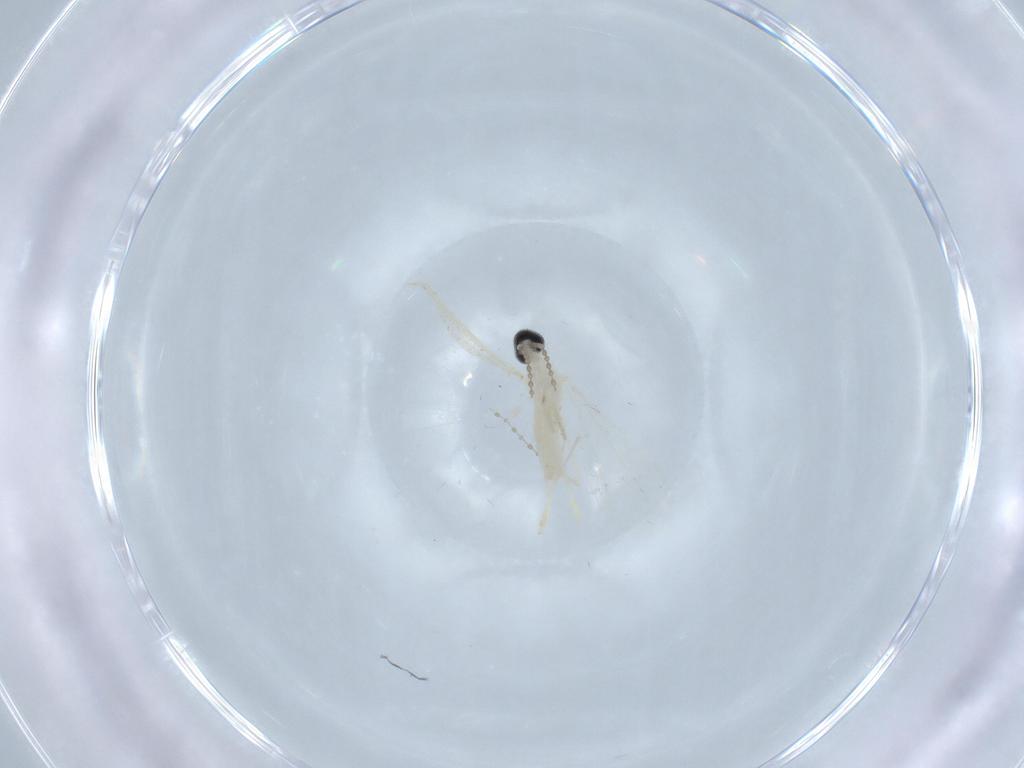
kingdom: Animalia
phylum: Arthropoda
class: Insecta
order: Diptera
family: Cecidomyiidae
